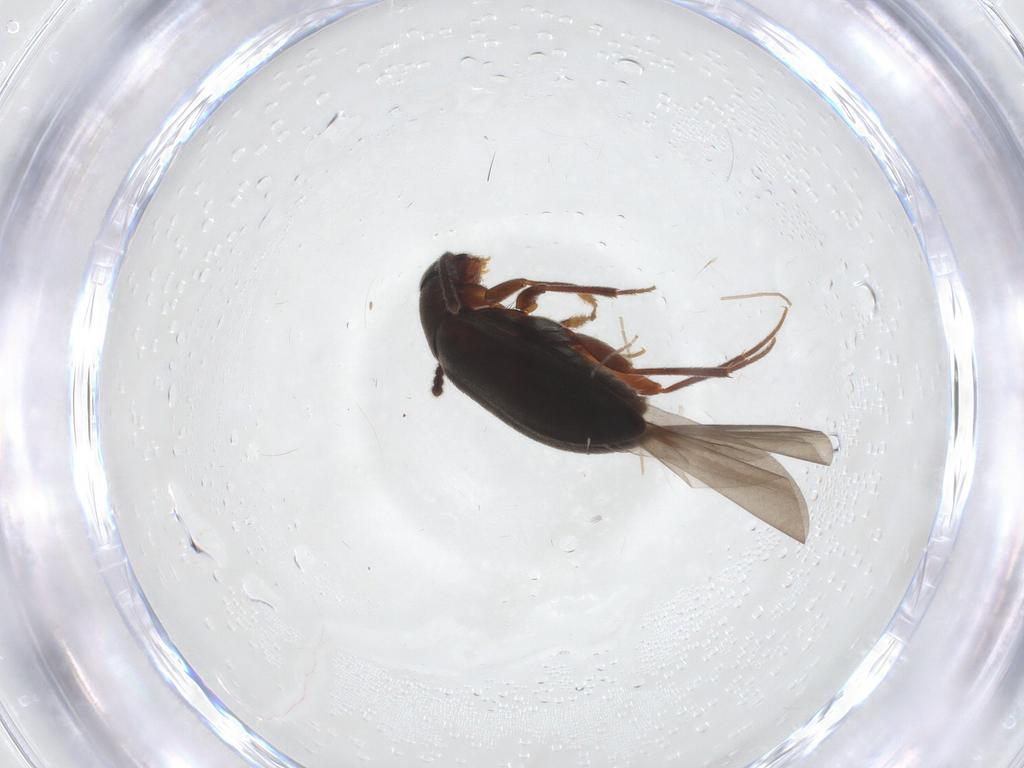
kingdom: Animalia
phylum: Arthropoda
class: Insecta
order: Coleoptera
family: Leiodidae
